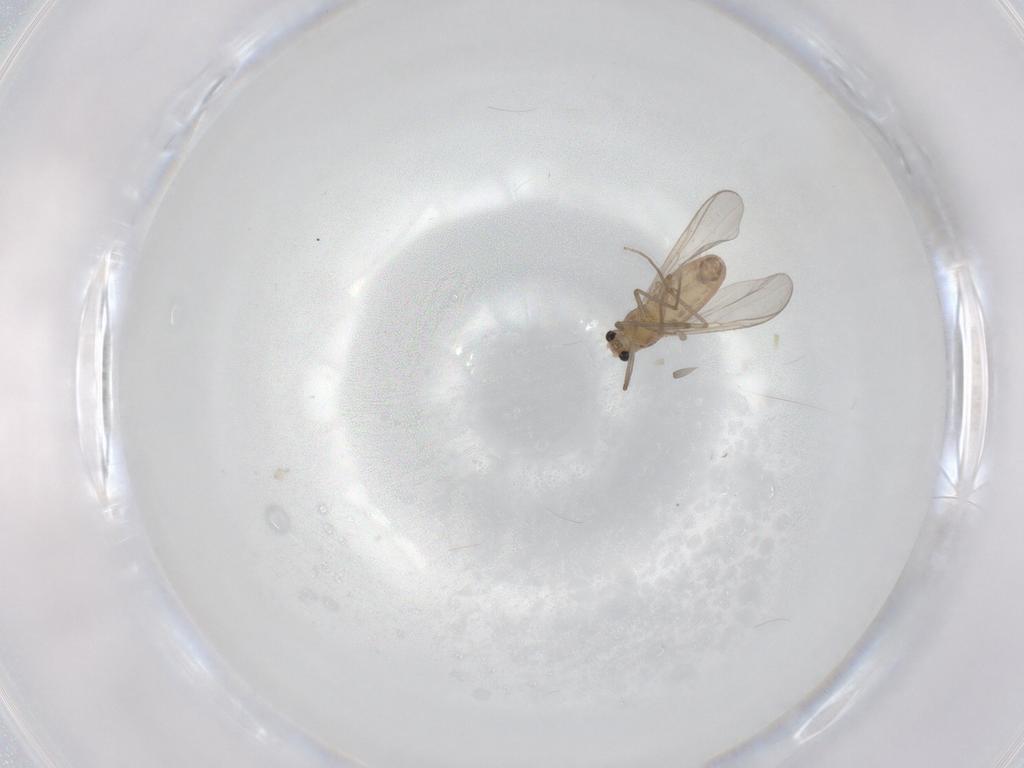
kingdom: Animalia
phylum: Arthropoda
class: Insecta
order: Diptera
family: Chironomidae
